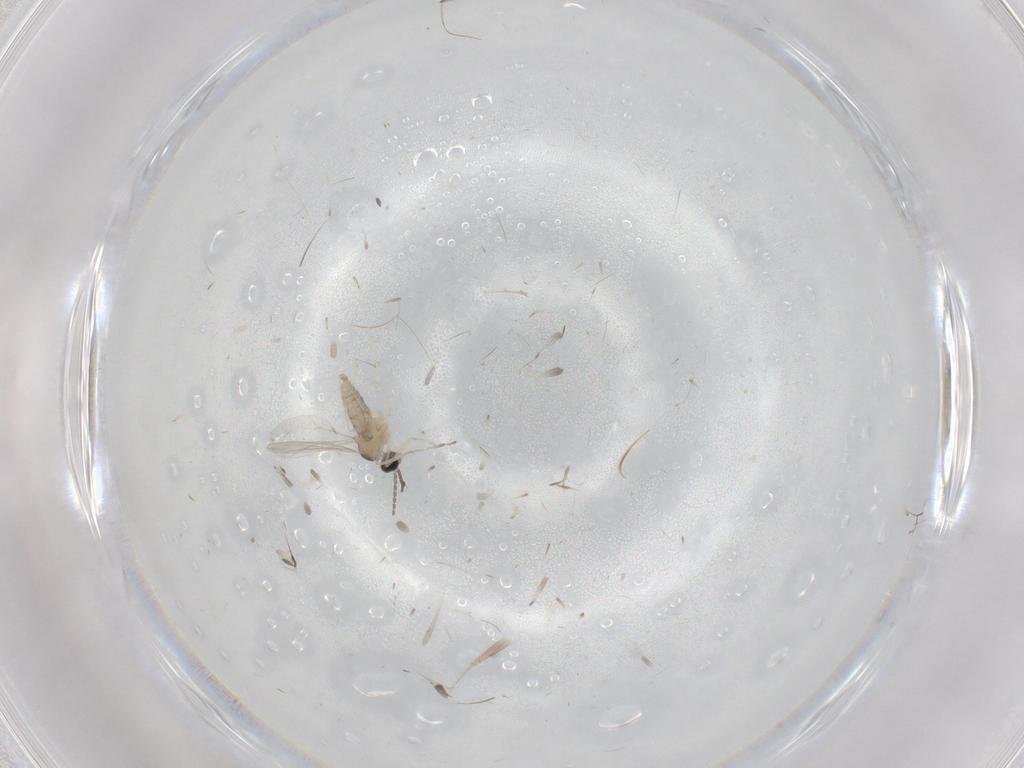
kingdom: Animalia
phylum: Arthropoda
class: Insecta
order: Diptera
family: Cecidomyiidae
